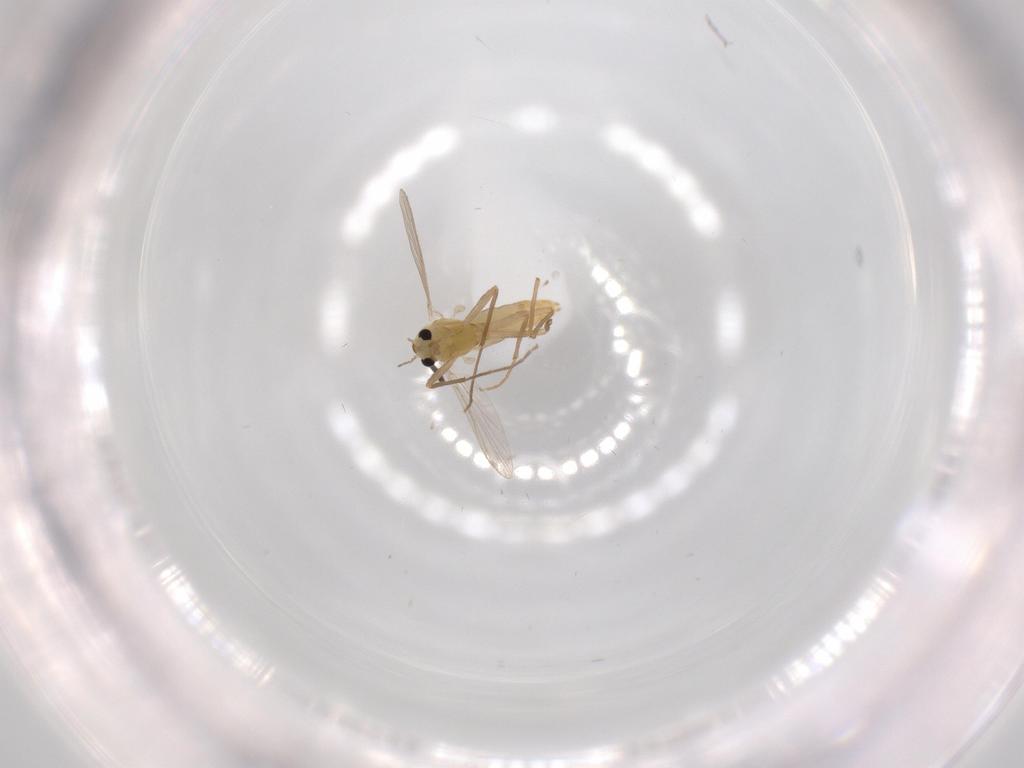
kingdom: Animalia
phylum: Arthropoda
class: Insecta
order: Diptera
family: Chironomidae
